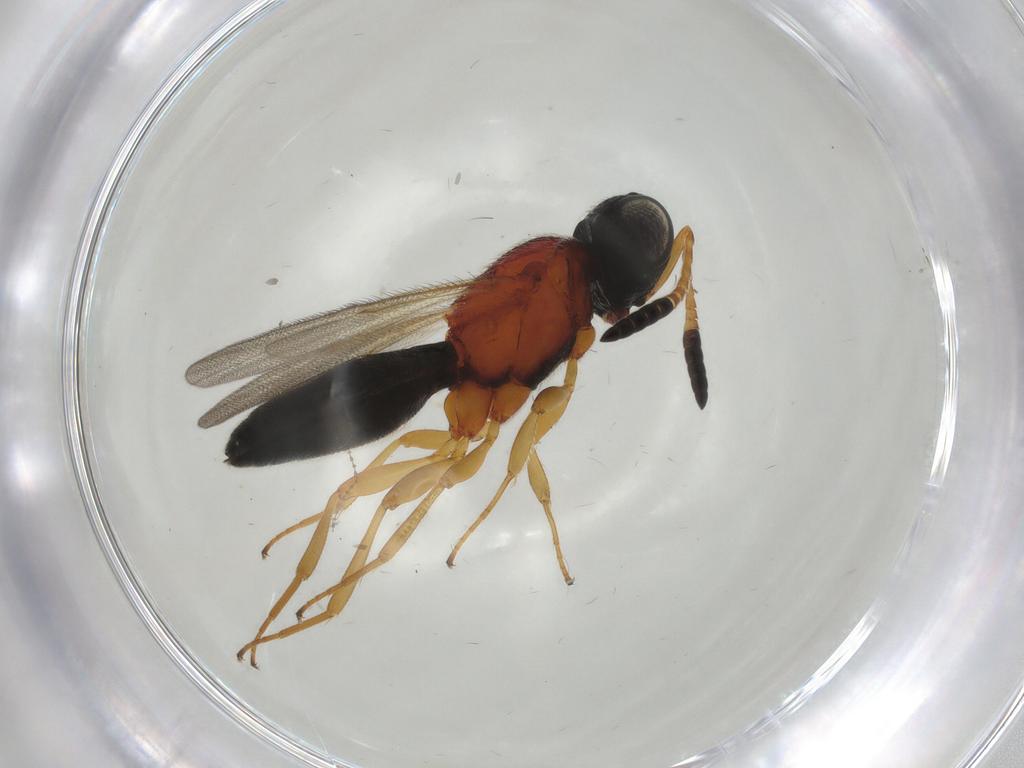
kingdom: Animalia
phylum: Arthropoda
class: Insecta
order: Hymenoptera
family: Scelionidae
